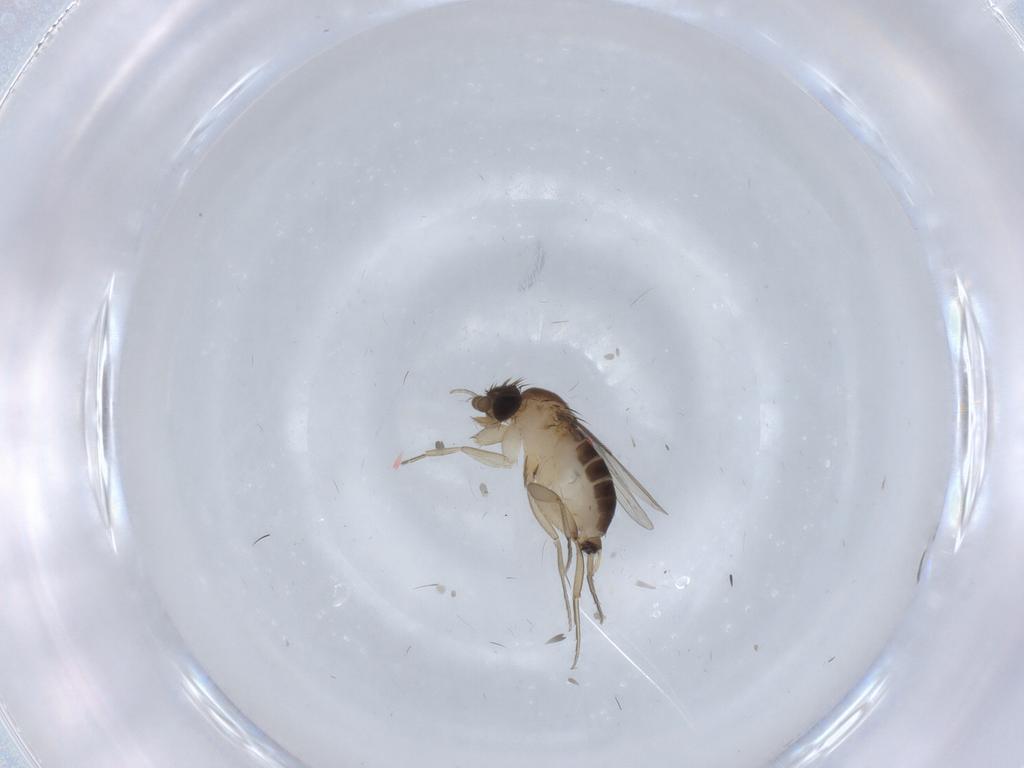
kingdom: Animalia
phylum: Arthropoda
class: Insecta
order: Diptera
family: Phoridae
